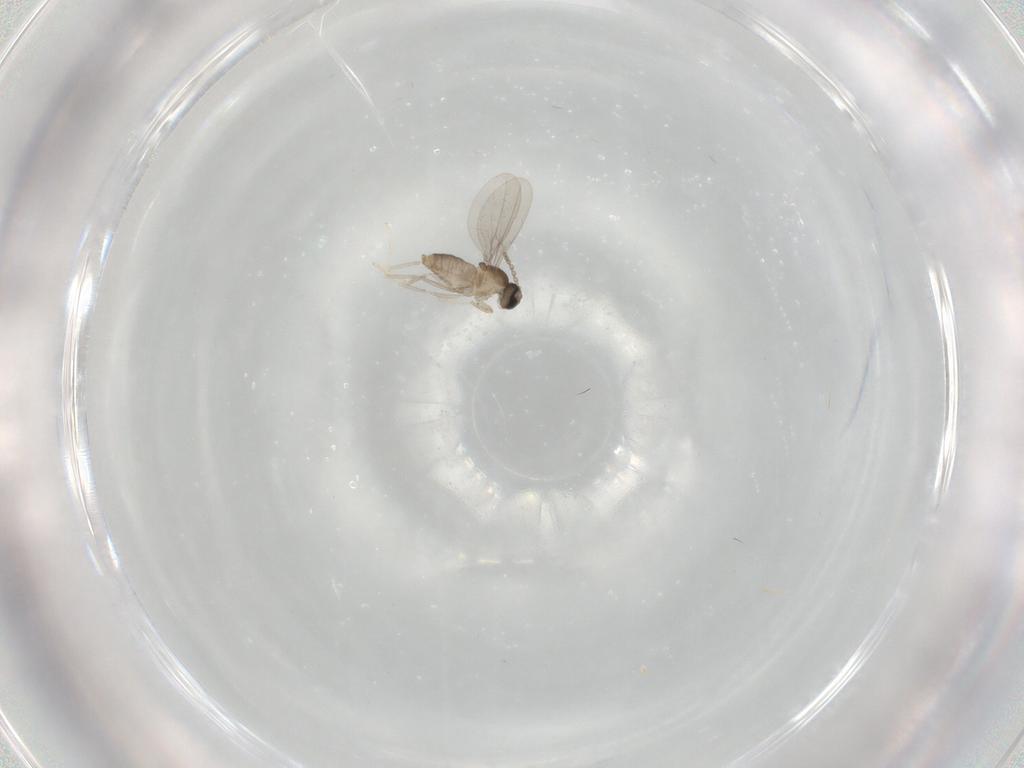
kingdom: Animalia
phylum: Arthropoda
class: Insecta
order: Diptera
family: Cecidomyiidae
